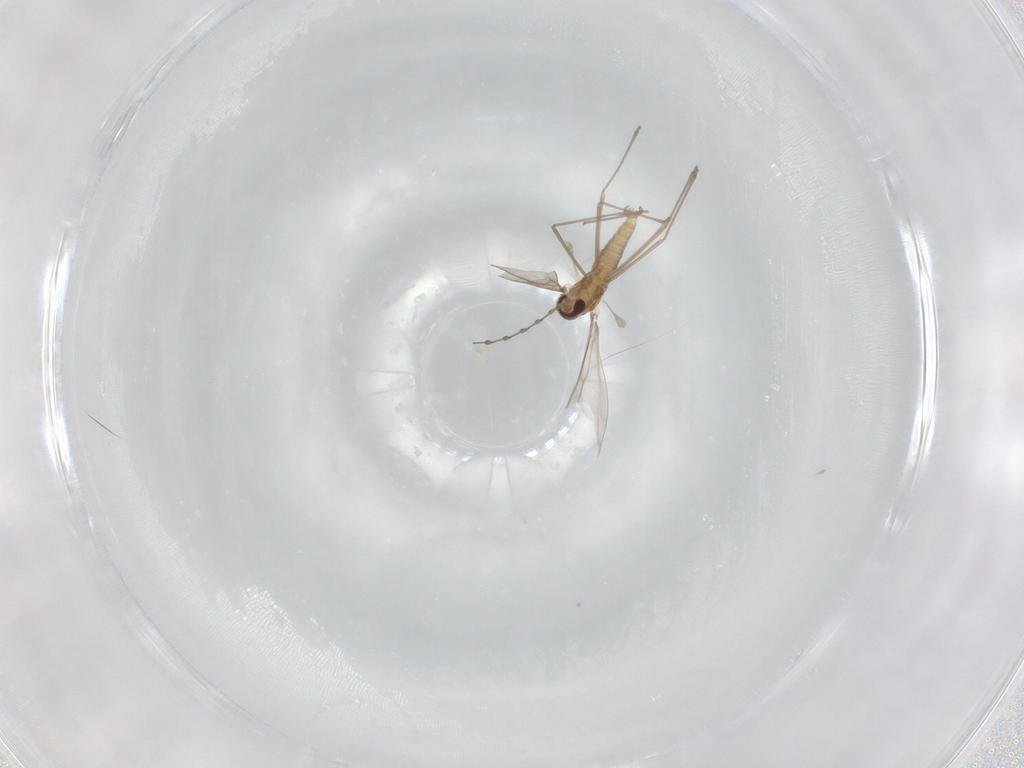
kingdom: Animalia
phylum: Arthropoda
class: Insecta
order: Diptera
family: Cecidomyiidae
